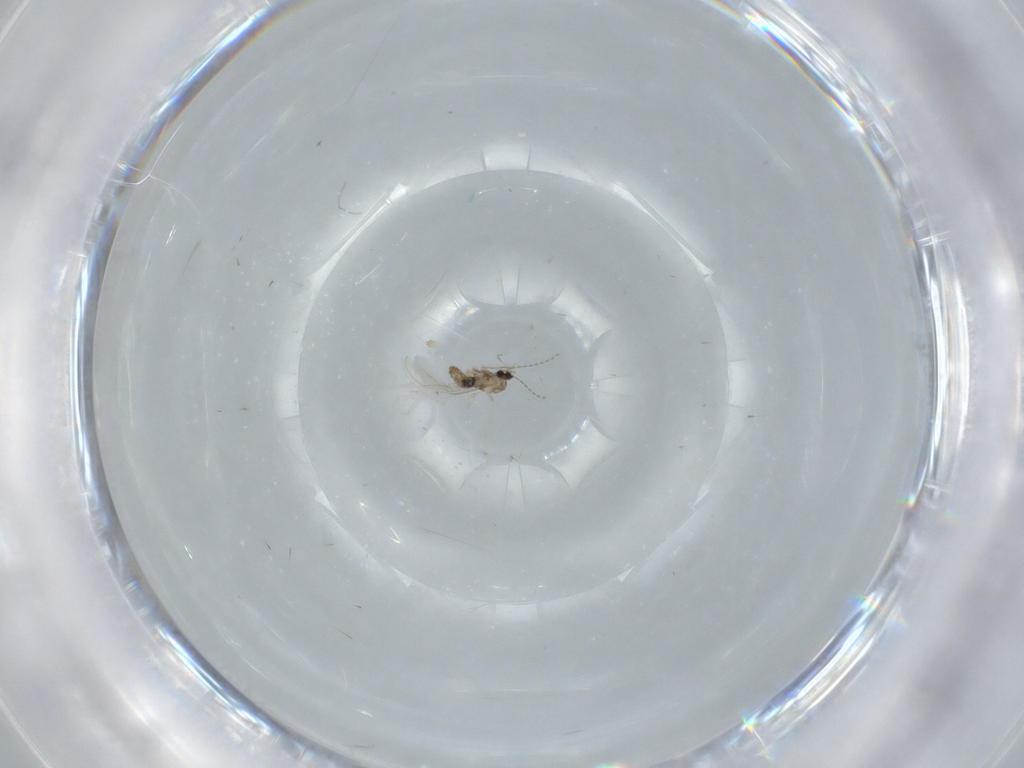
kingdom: Animalia
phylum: Arthropoda
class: Insecta
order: Diptera
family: Cecidomyiidae
